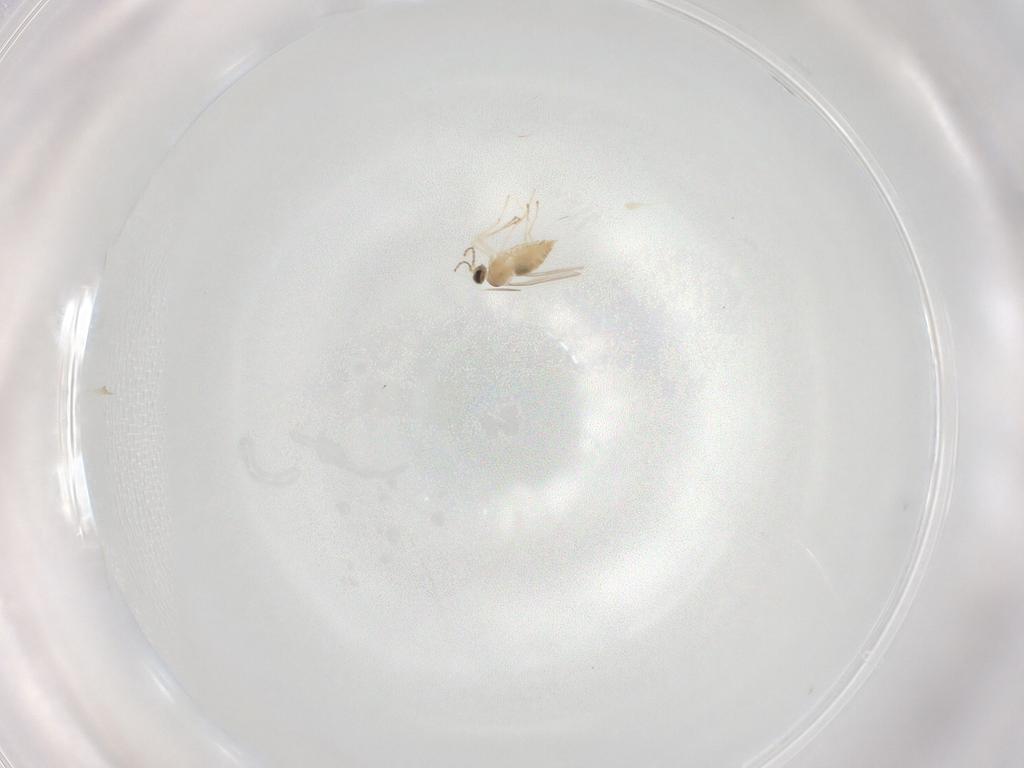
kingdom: Animalia
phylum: Arthropoda
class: Insecta
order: Diptera
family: Cecidomyiidae
